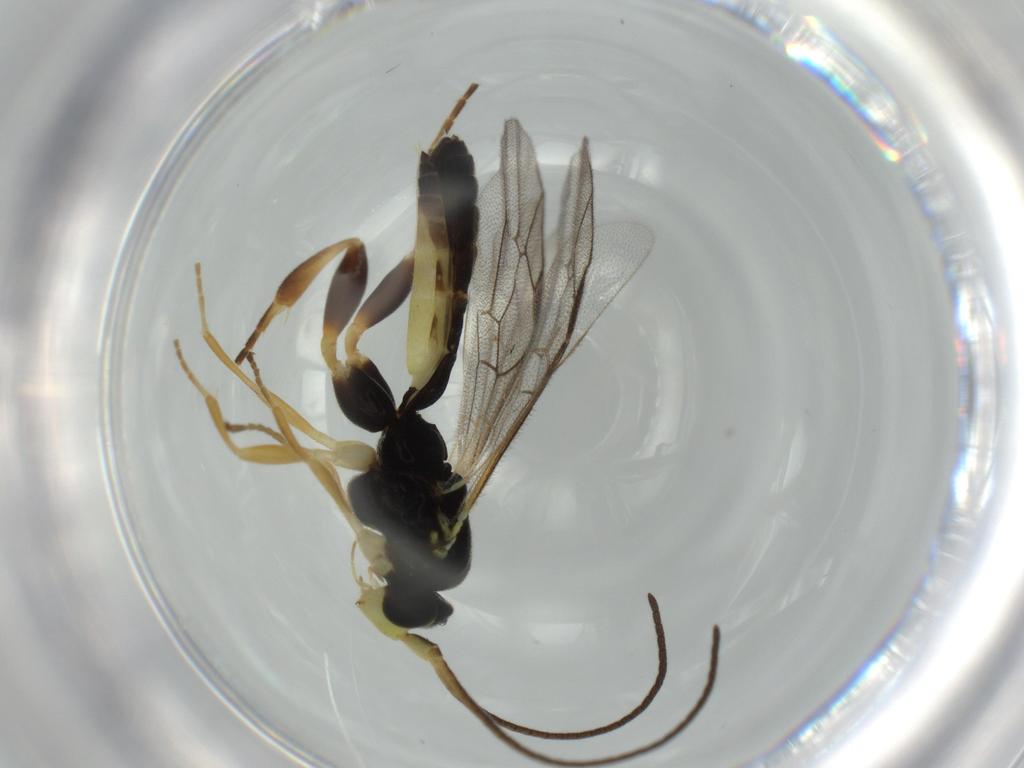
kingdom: Animalia
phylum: Arthropoda
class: Insecta
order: Hymenoptera
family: Ichneumonidae
